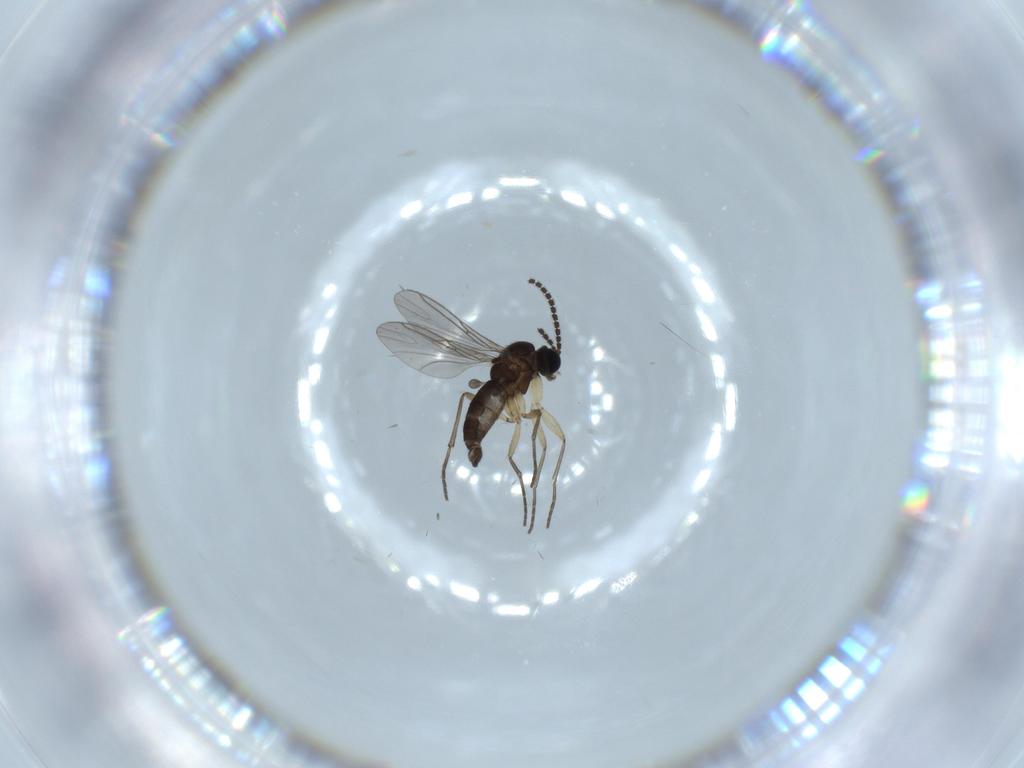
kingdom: Animalia
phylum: Arthropoda
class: Insecta
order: Diptera
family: Sciaridae
